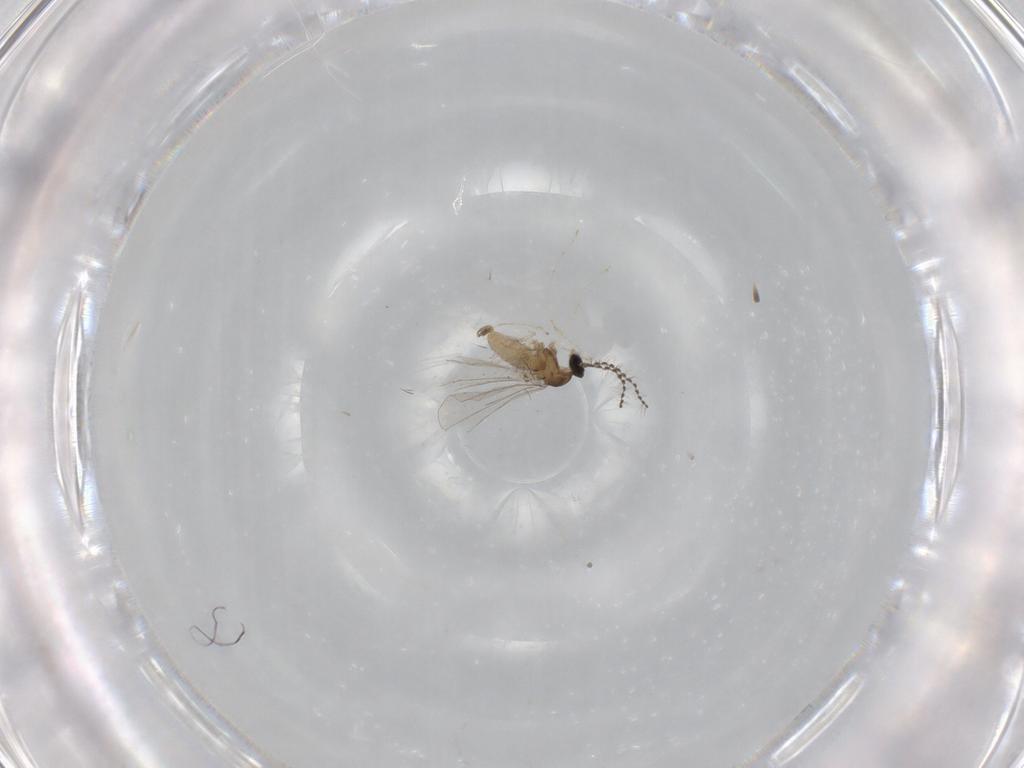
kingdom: Animalia
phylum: Arthropoda
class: Insecta
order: Diptera
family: Cecidomyiidae
